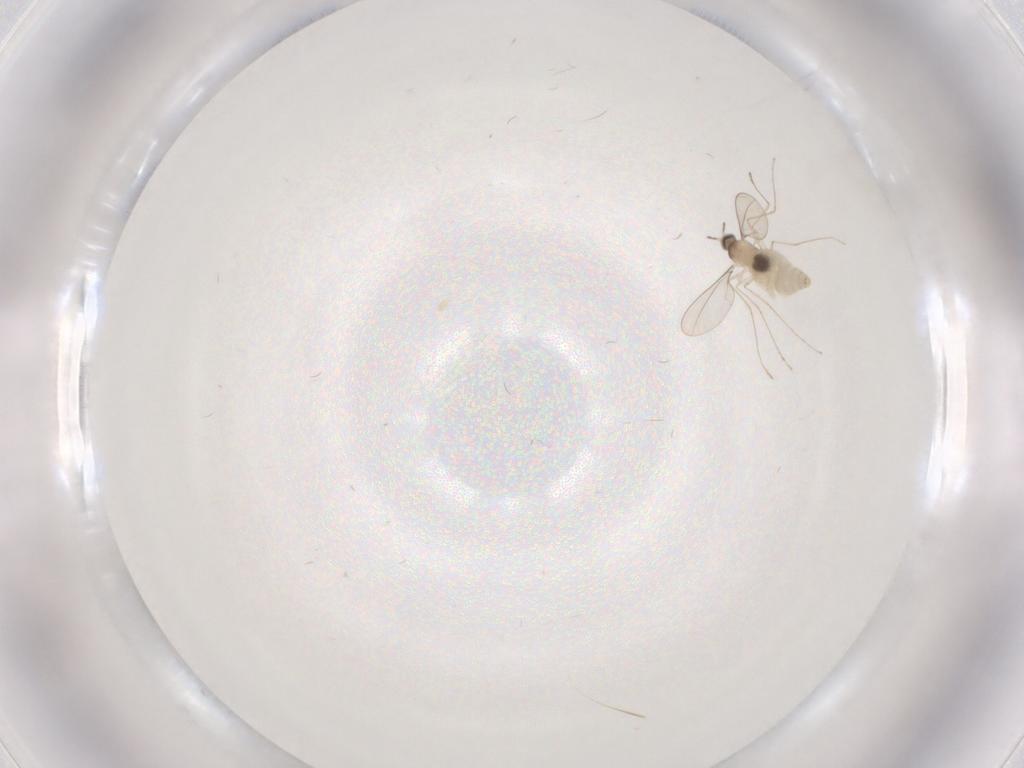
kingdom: Animalia
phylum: Arthropoda
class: Insecta
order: Diptera
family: Cecidomyiidae
